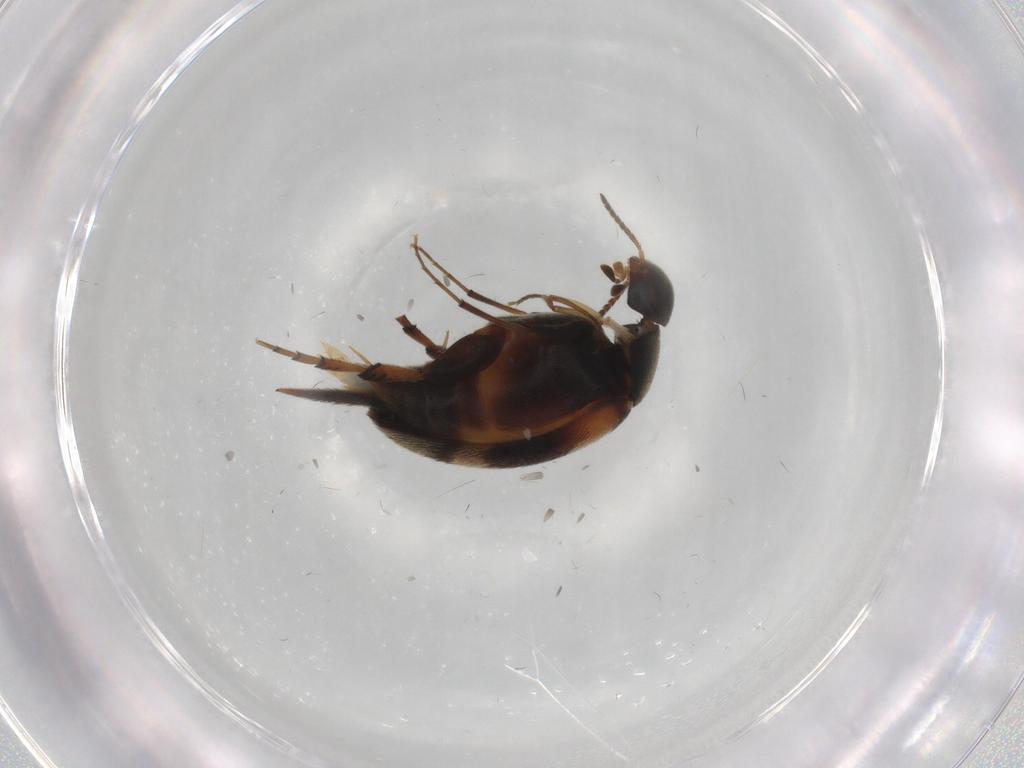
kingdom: Animalia
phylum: Arthropoda
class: Insecta
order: Coleoptera
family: Mordellidae
